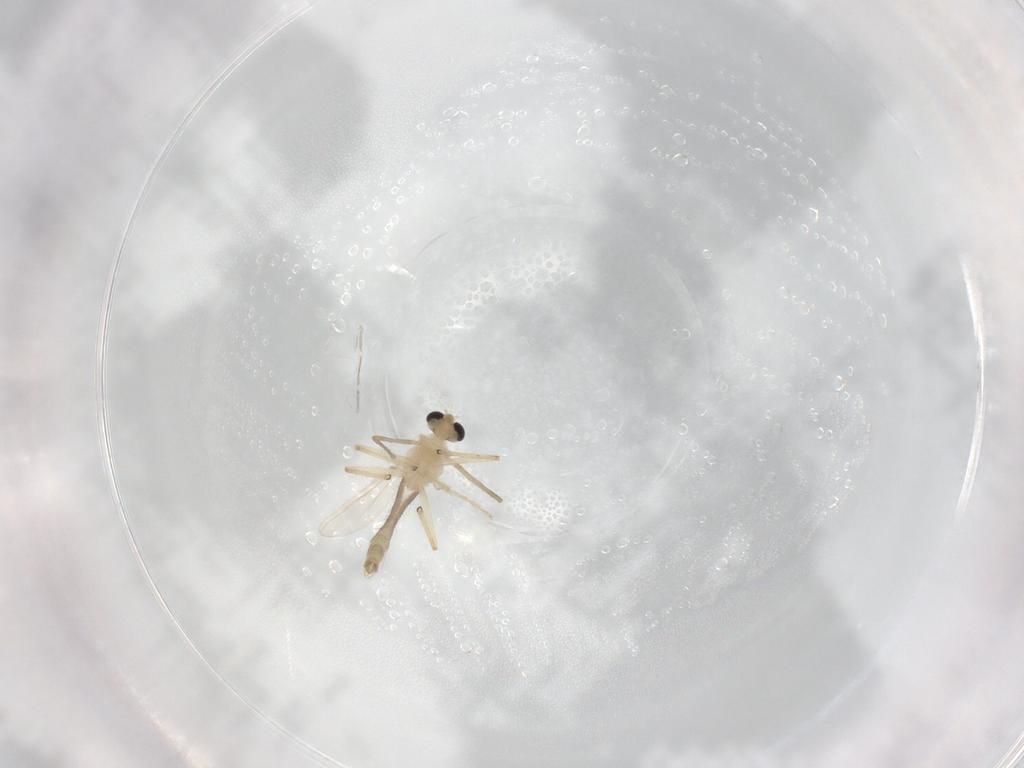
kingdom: Animalia
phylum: Arthropoda
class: Insecta
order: Diptera
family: Chironomidae
